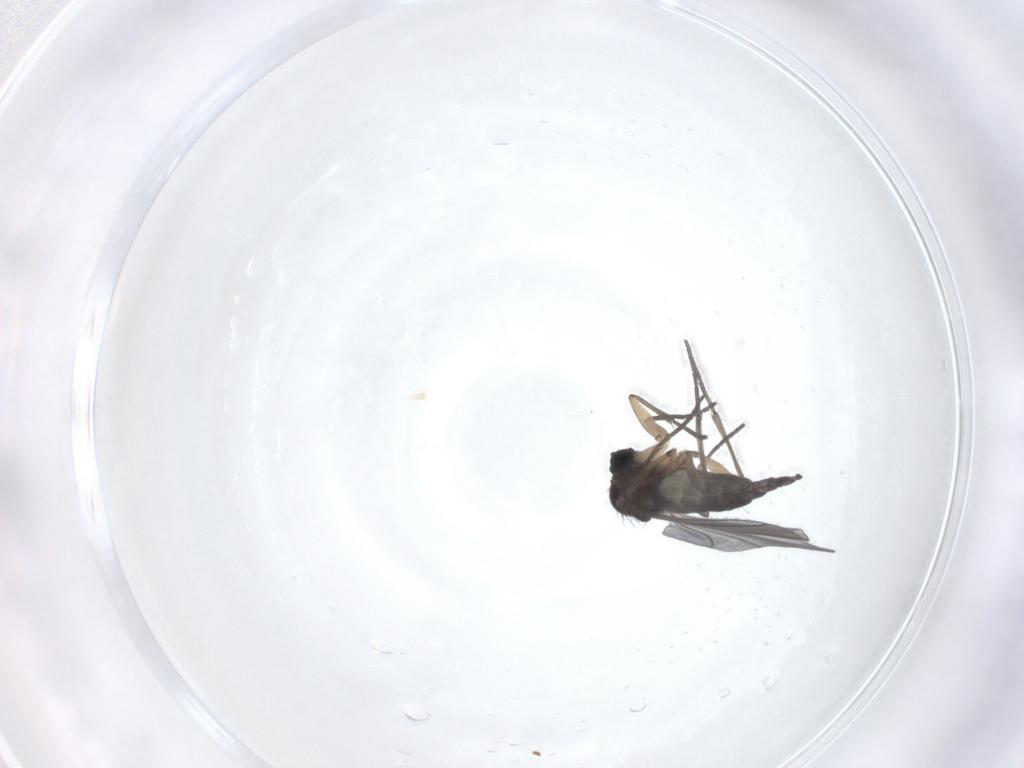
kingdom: Animalia
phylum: Arthropoda
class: Insecta
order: Diptera
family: Sciaridae
